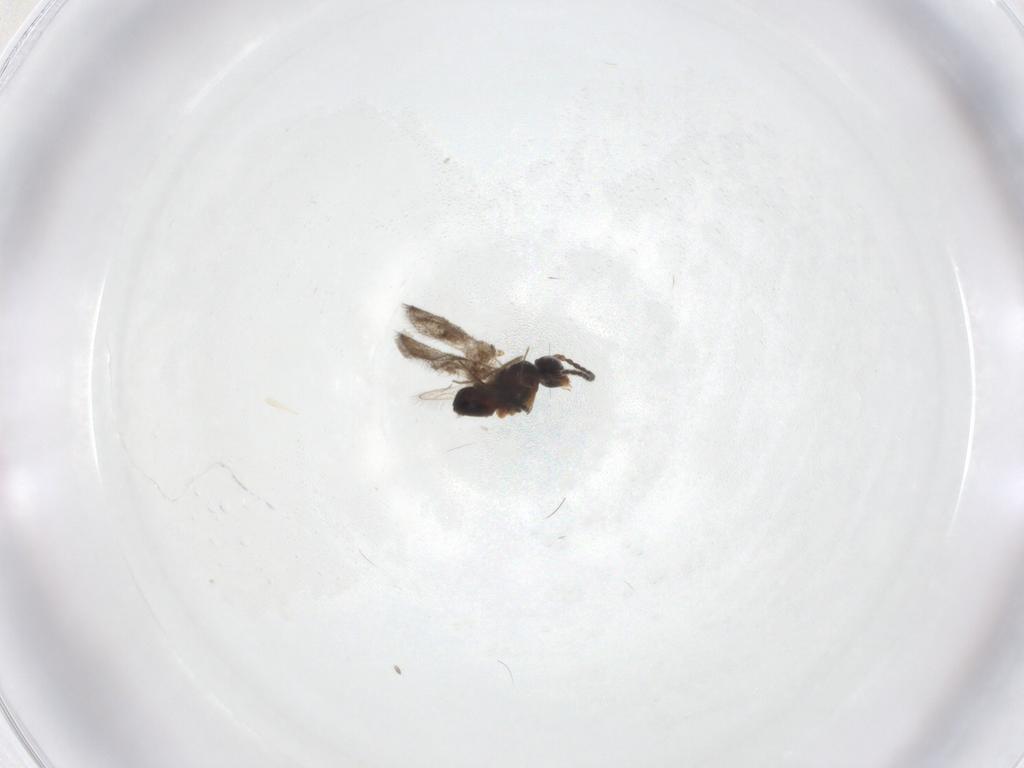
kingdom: Animalia
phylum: Arthropoda
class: Insecta
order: Hymenoptera
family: Figitidae
